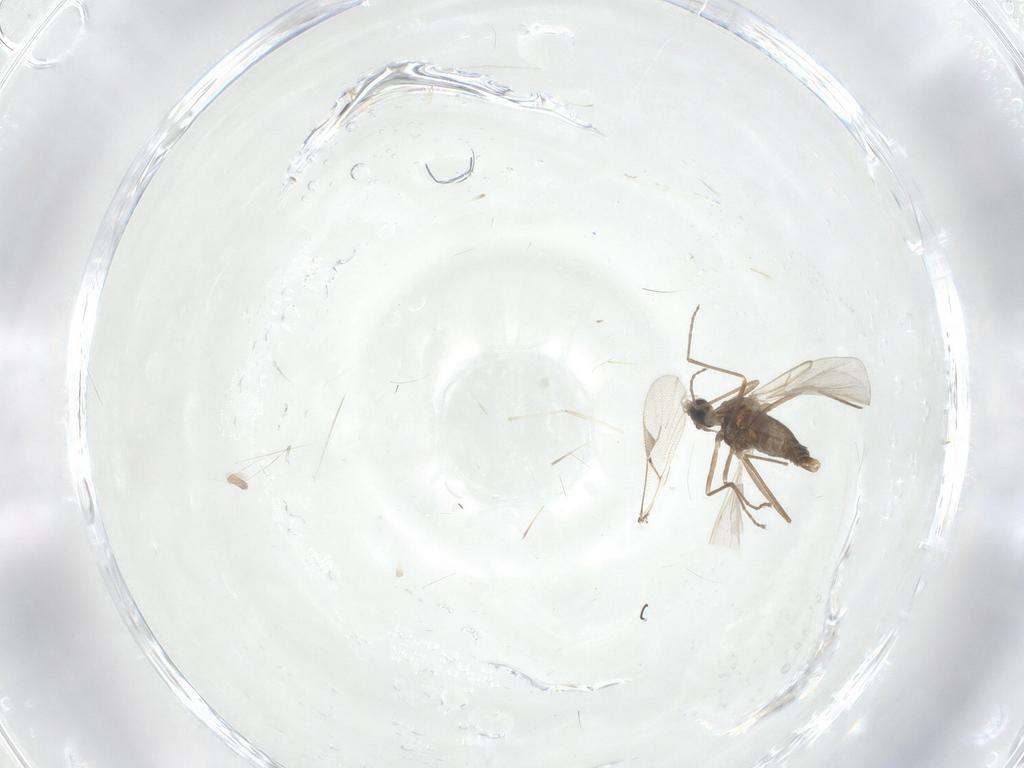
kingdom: Animalia
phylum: Arthropoda
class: Insecta
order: Diptera
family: Cecidomyiidae
